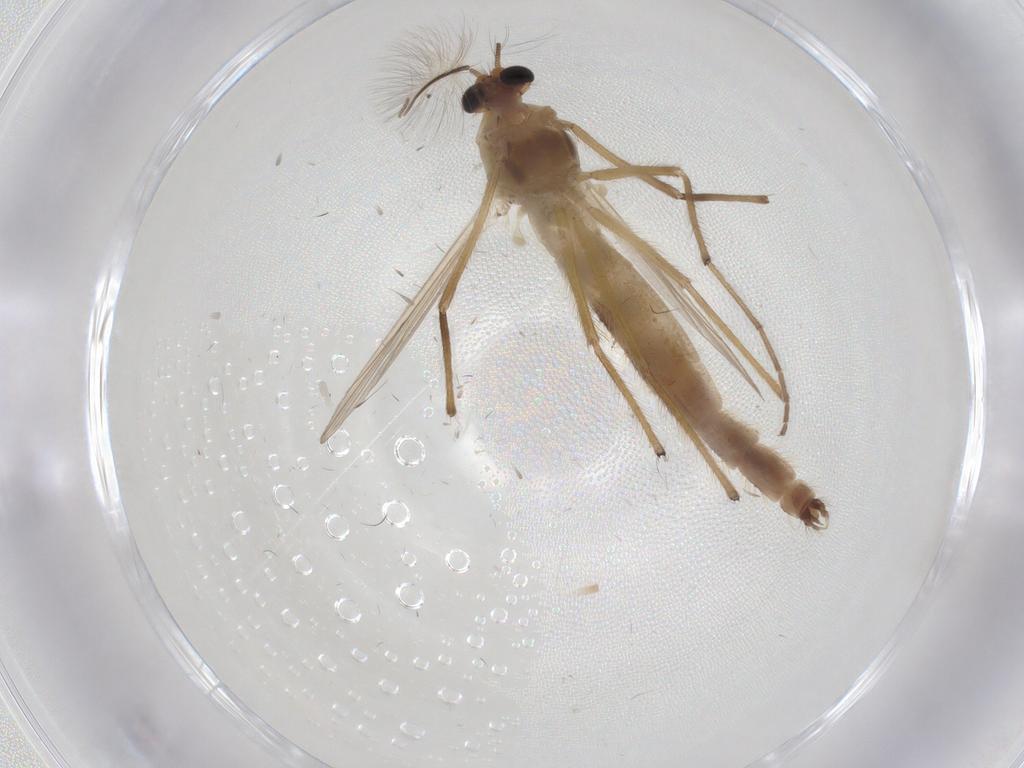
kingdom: Animalia
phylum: Arthropoda
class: Insecta
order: Diptera
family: Chironomidae
